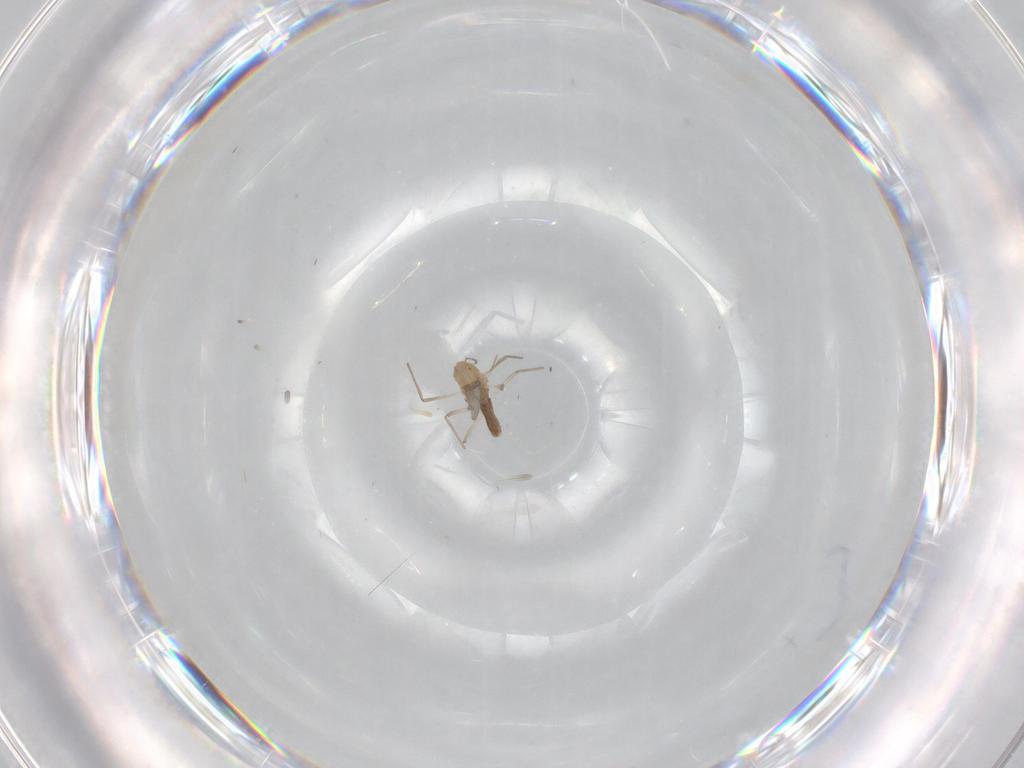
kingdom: Animalia
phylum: Arthropoda
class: Insecta
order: Diptera
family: Chironomidae
